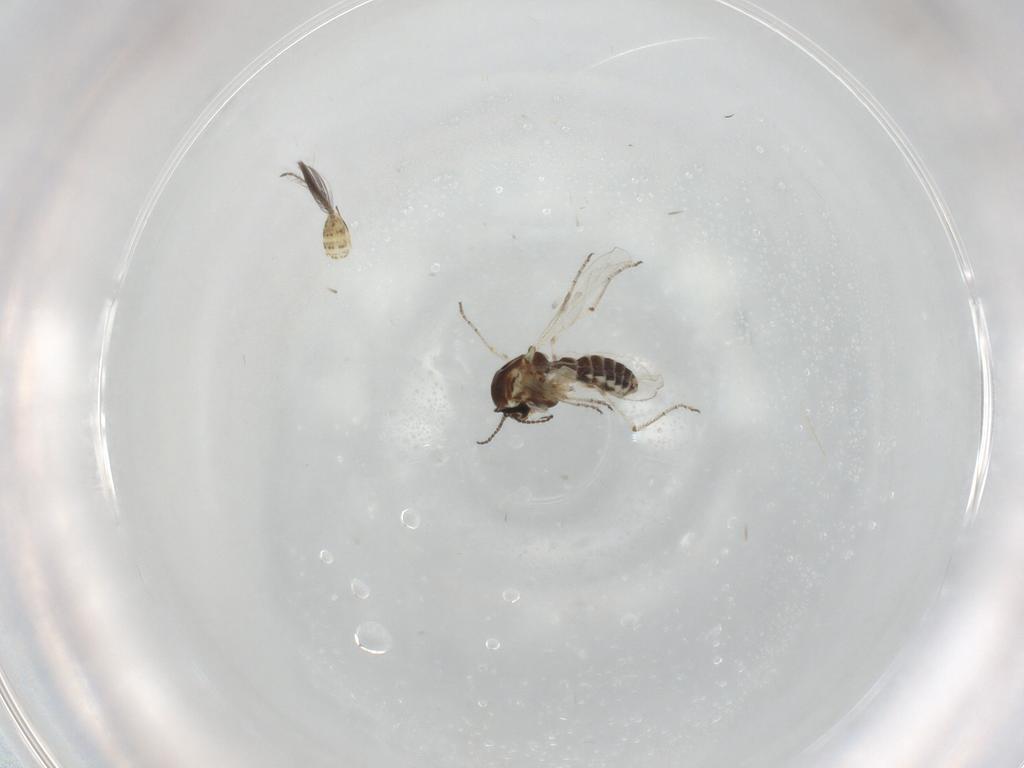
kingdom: Animalia
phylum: Arthropoda
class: Insecta
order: Diptera
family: Ceratopogonidae
